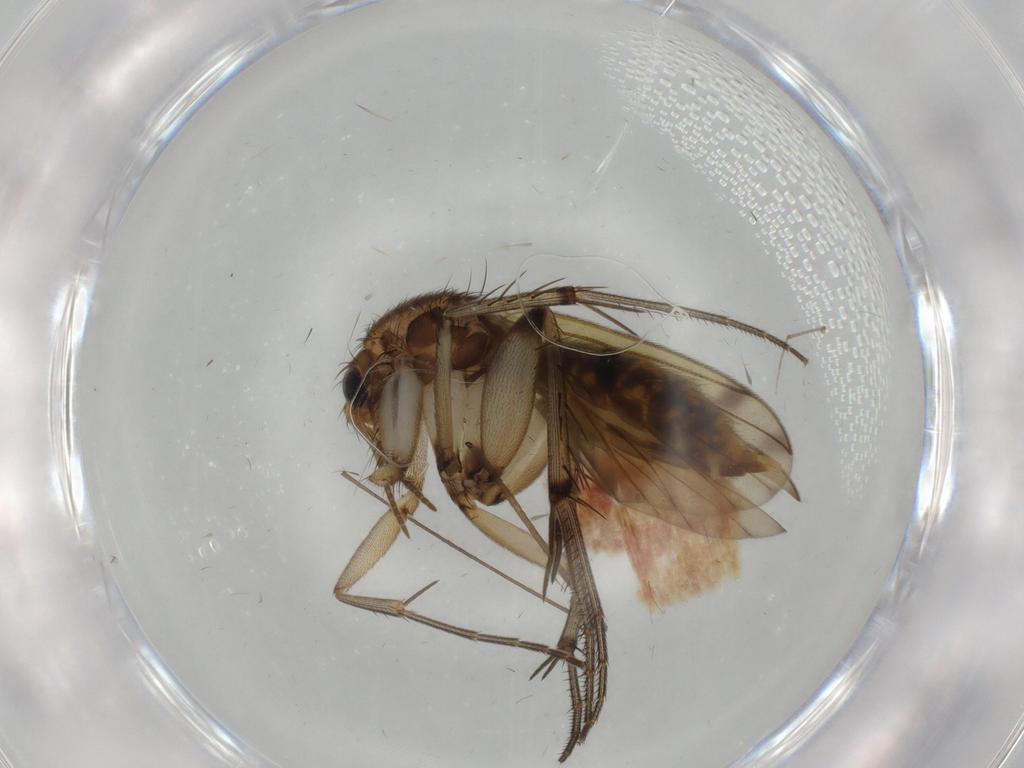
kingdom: Animalia
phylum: Arthropoda
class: Insecta
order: Diptera
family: Mycetophilidae
